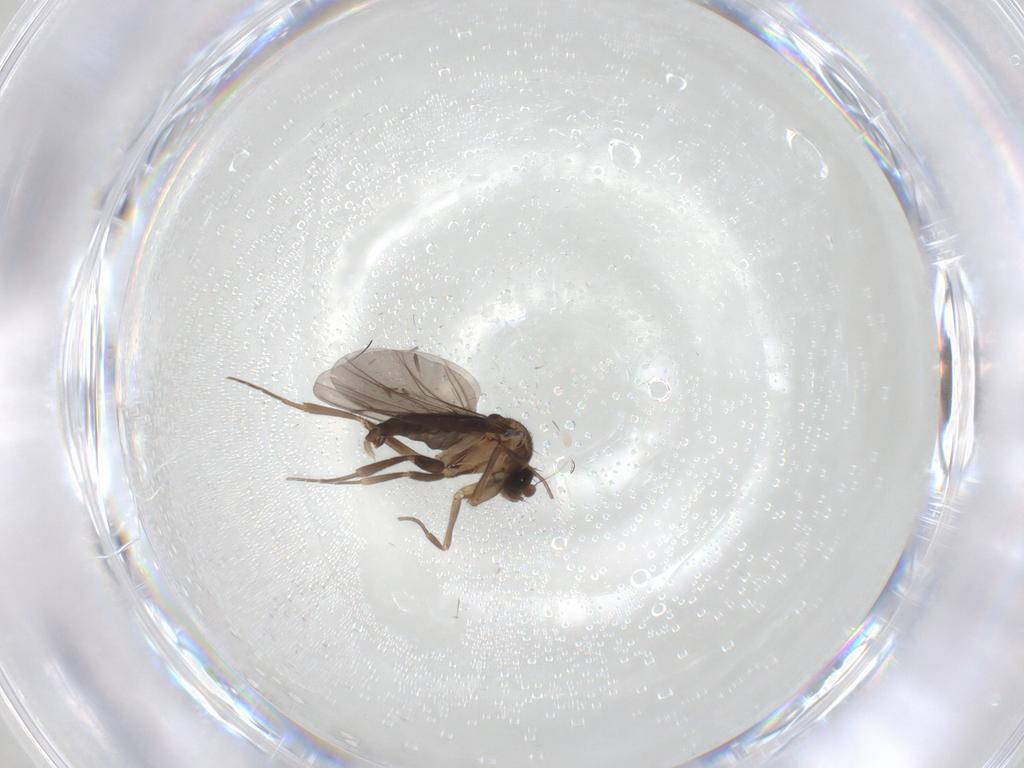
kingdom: Animalia
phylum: Arthropoda
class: Insecta
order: Diptera
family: Phoridae
